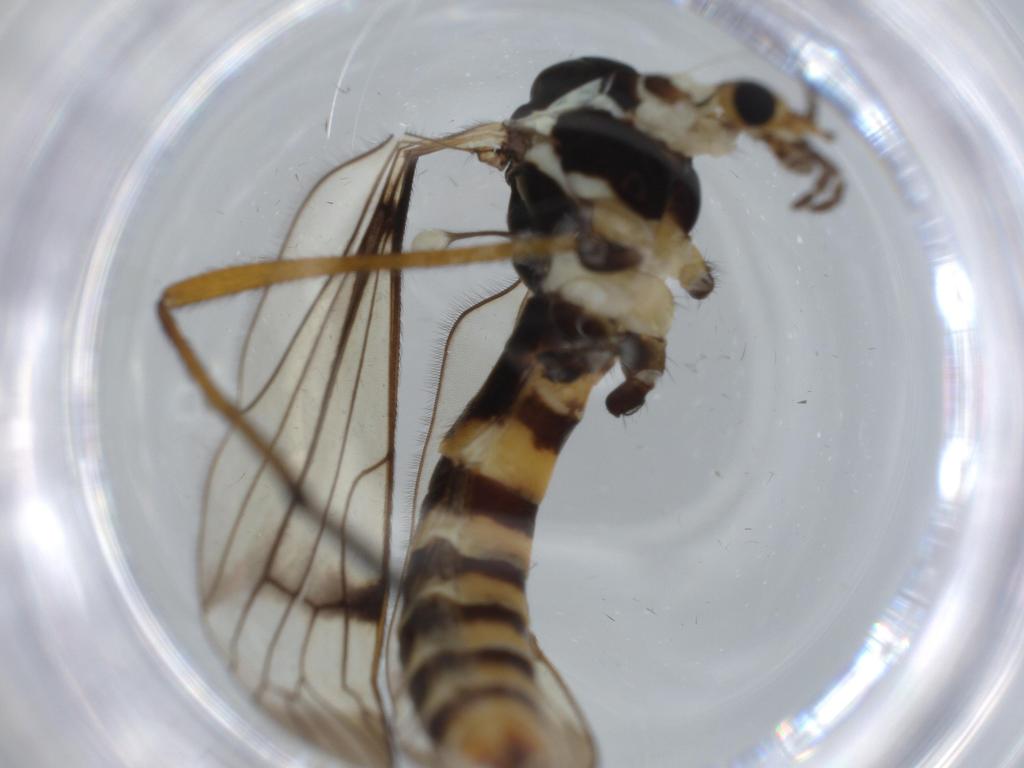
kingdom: Animalia
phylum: Arthropoda
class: Insecta
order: Diptera
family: Limoniidae
